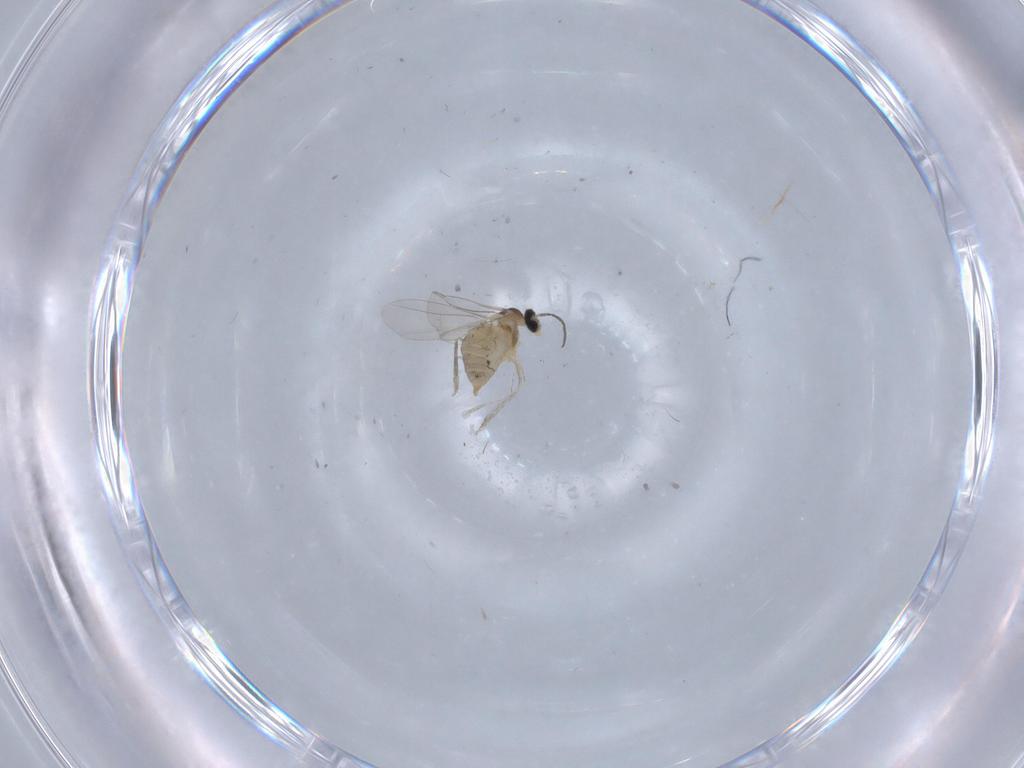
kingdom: Animalia
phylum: Arthropoda
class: Insecta
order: Diptera
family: Cecidomyiidae
